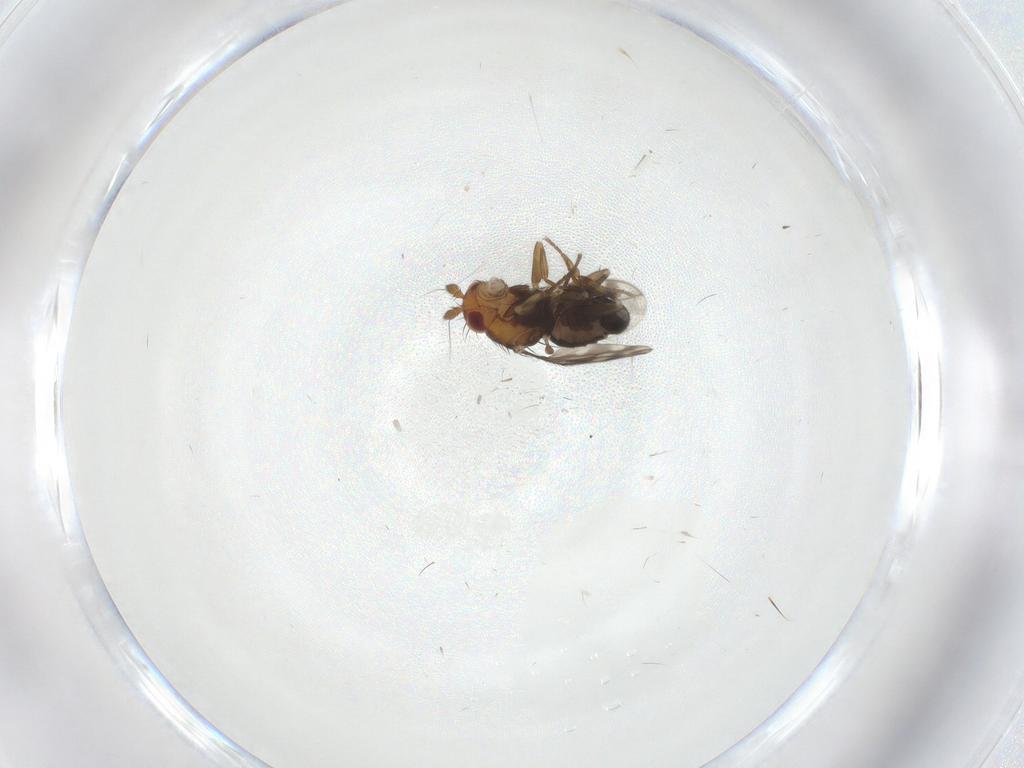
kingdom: Animalia
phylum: Arthropoda
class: Insecta
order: Diptera
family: Sphaeroceridae
